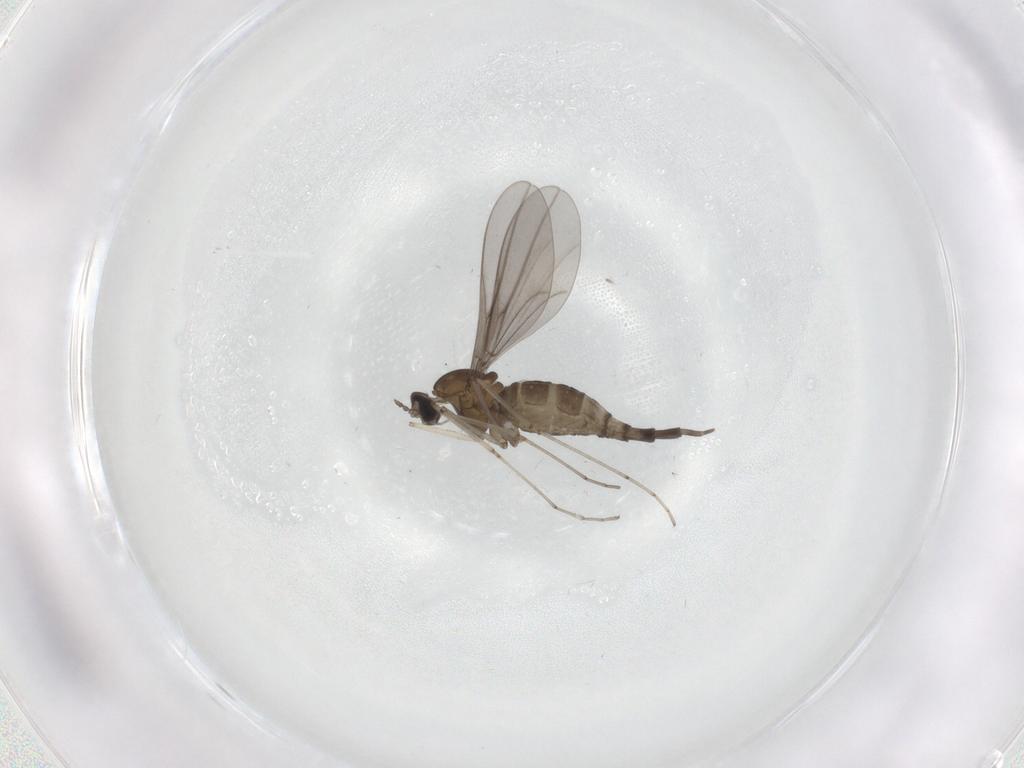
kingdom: Animalia
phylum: Arthropoda
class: Insecta
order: Diptera
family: Cecidomyiidae
